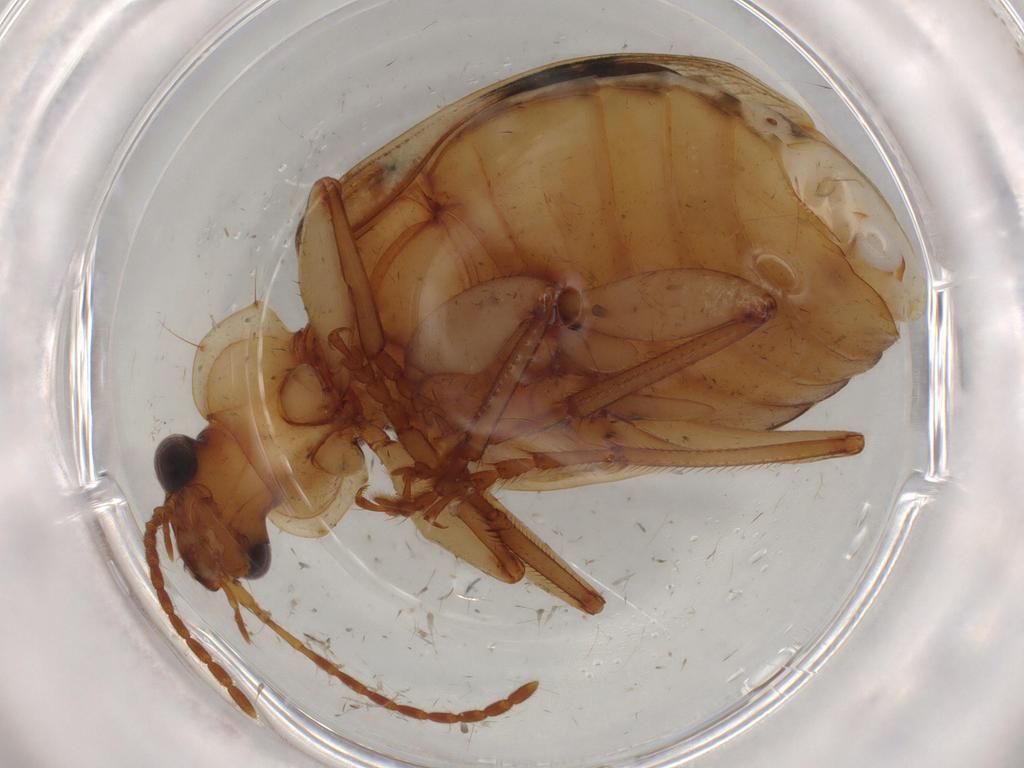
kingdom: Animalia
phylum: Arthropoda
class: Insecta
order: Coleoptera
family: Carabidae
